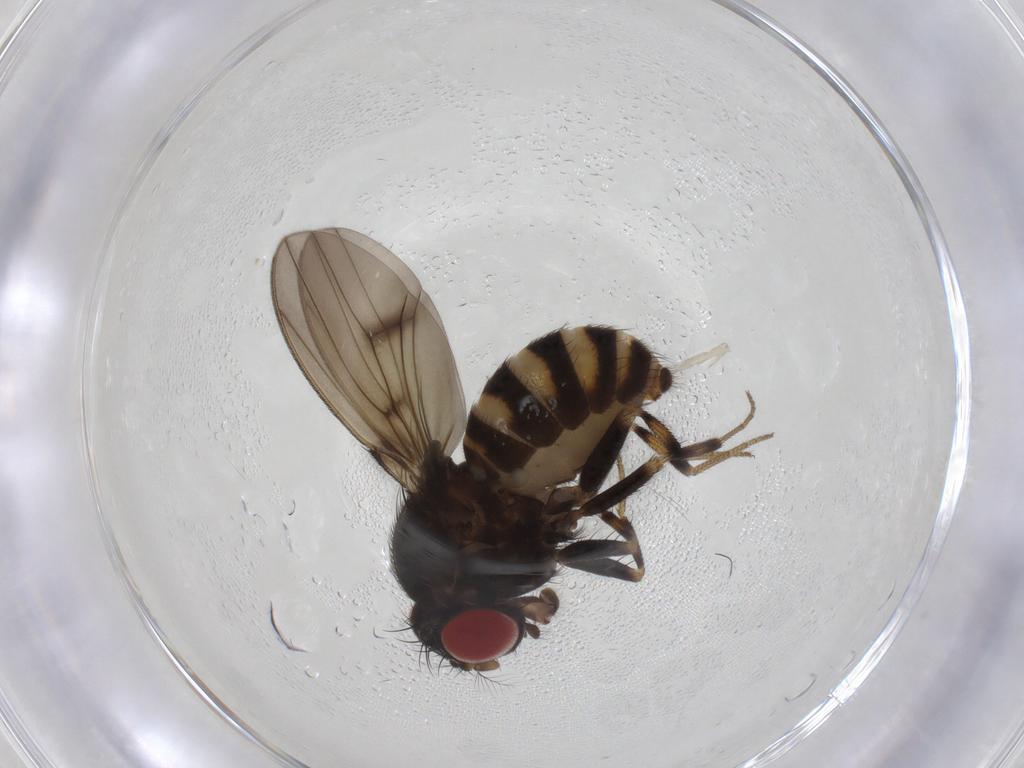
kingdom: Animalia
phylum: Arthropoda
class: Insecta
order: Diptera
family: Drosophilidae
